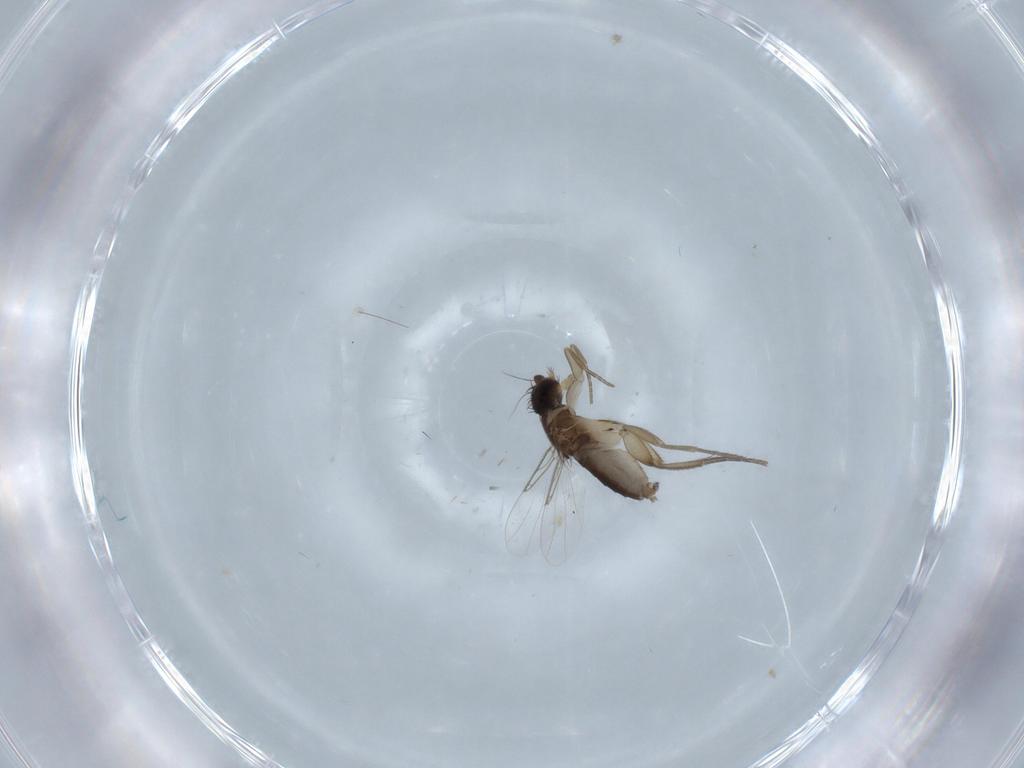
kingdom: Animalia
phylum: Arthropoda
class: Insecta
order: Diptera
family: Phoridae
